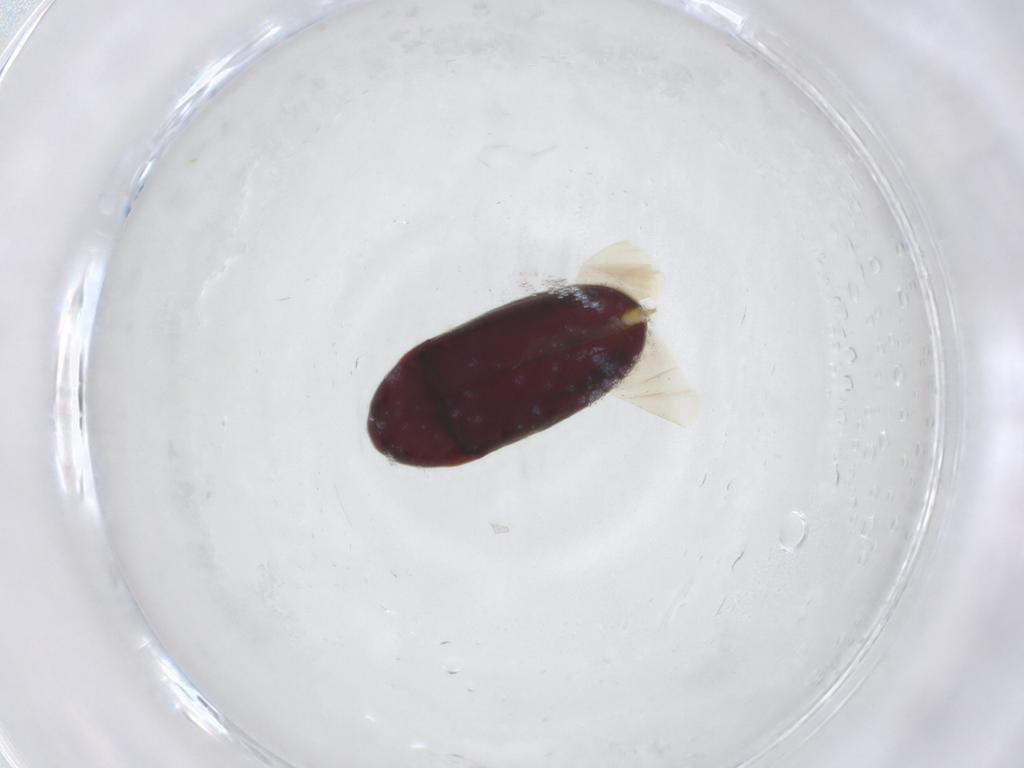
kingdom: Animalia
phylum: Arthropoda
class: Insecta
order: Coleoptera
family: Throscidae
